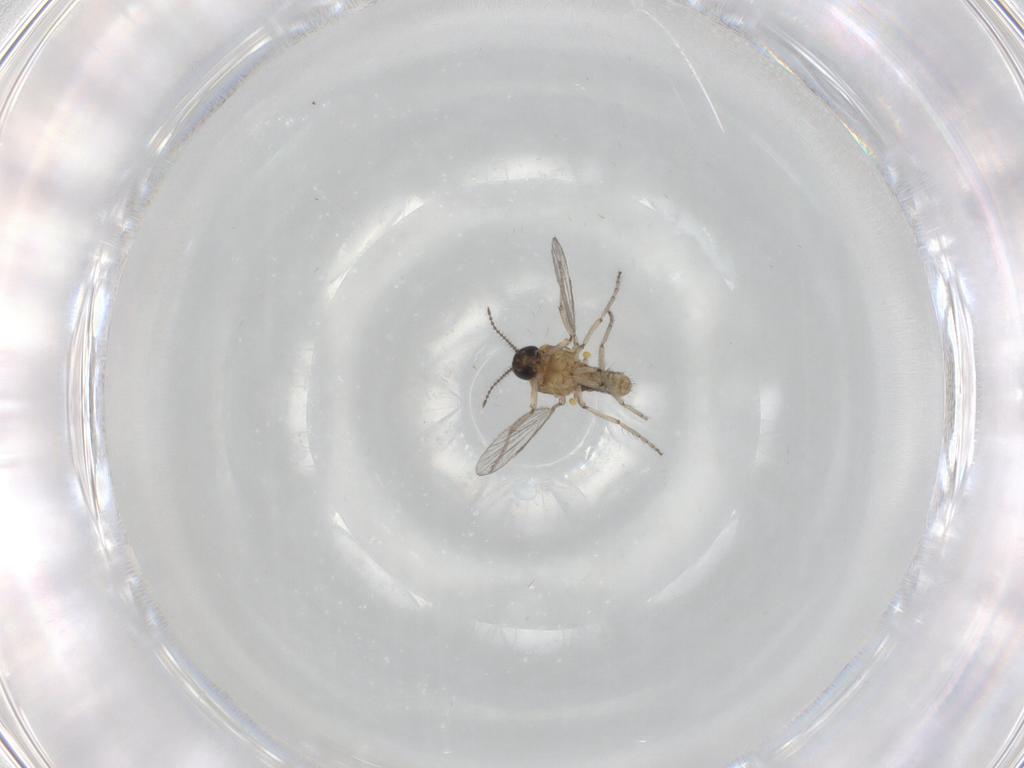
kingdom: Animalia
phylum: Arthropoda
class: Insecta
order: Diptera
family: Ceratopogonidae
